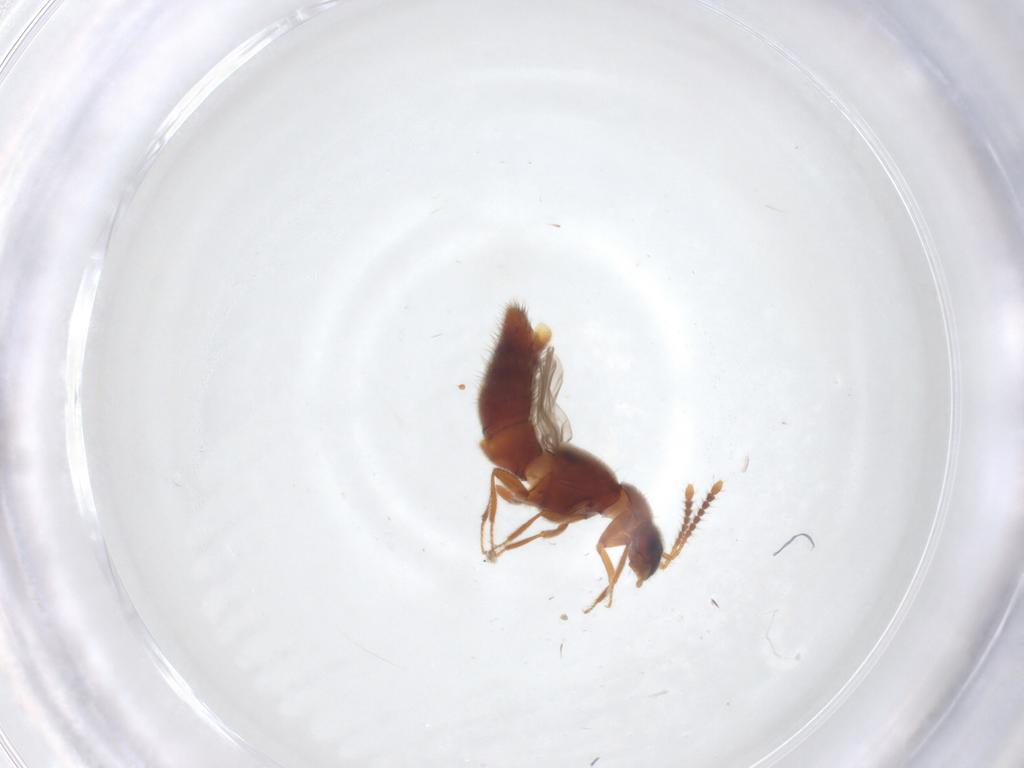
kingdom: Animalia
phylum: Arthropoda
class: Insecta
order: Coleoptera
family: Staphylinidae
